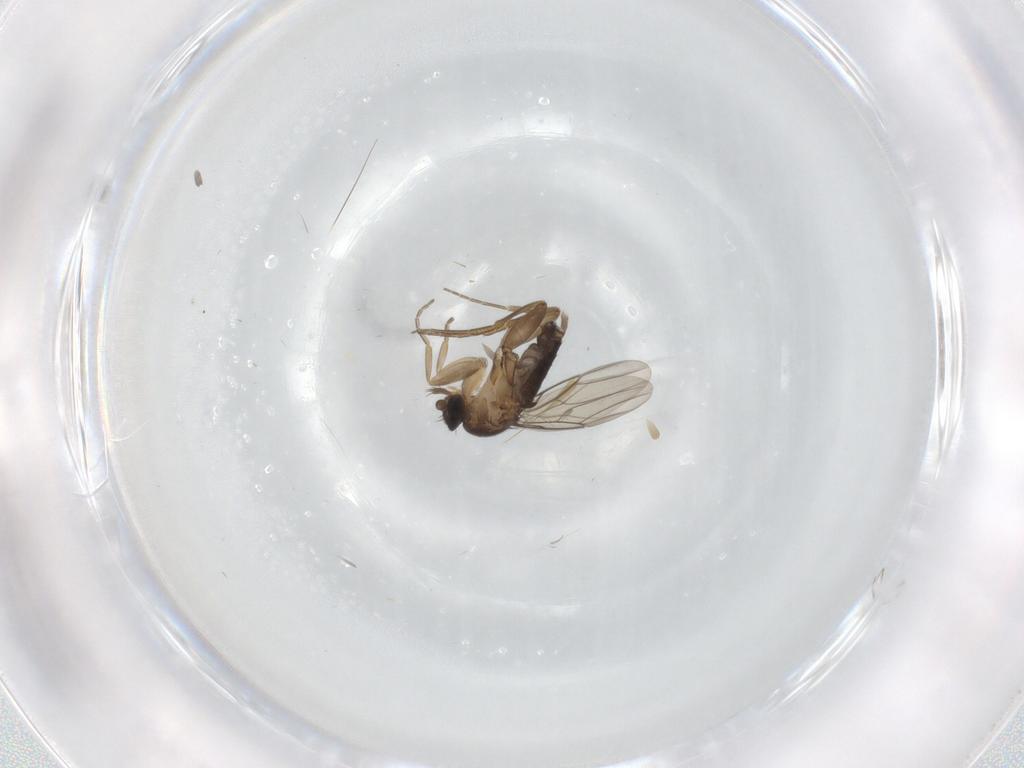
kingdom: Animalia
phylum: Arthropoda
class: Insecta
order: Diptera
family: Phoridae
